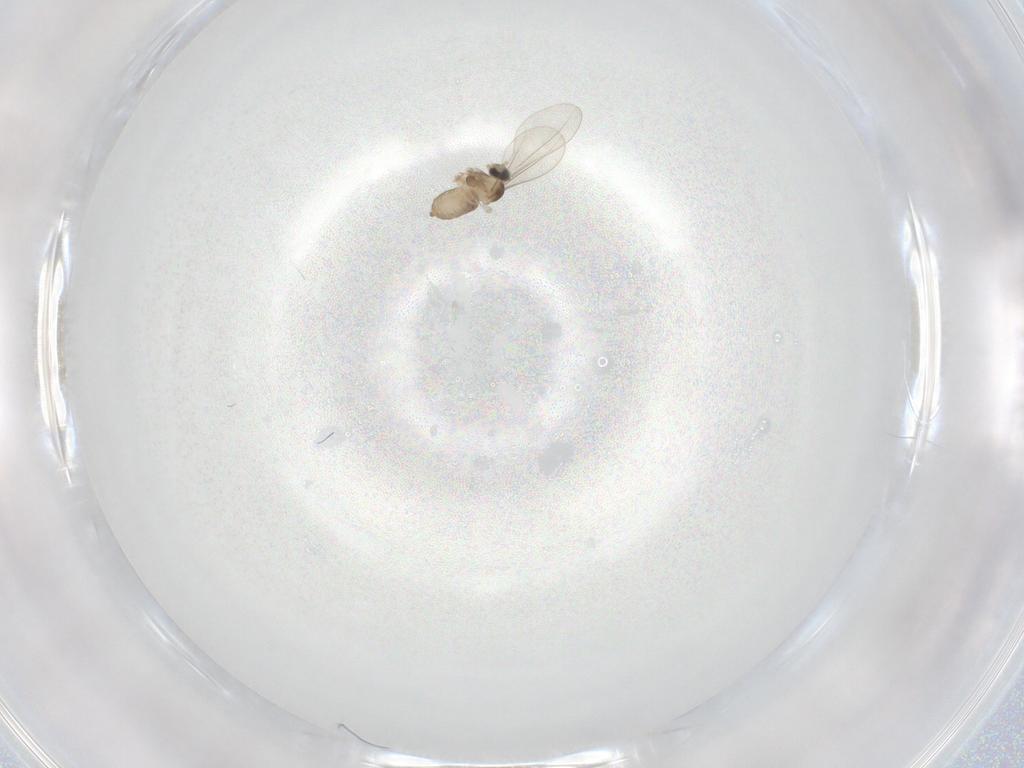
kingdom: Animalia
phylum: Arthropoda
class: Insecta
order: Diptera
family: Cecidomyiidae
